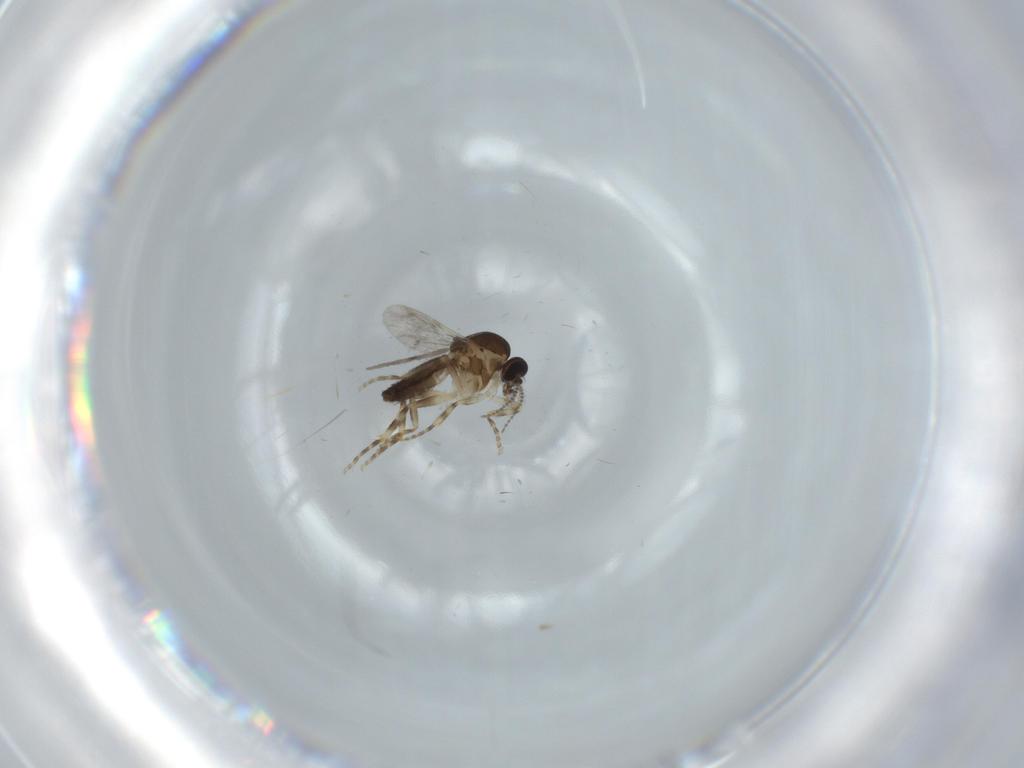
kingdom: Animalia
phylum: Arthropoda
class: Insecta
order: Diptera
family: Ceratopogonidae
